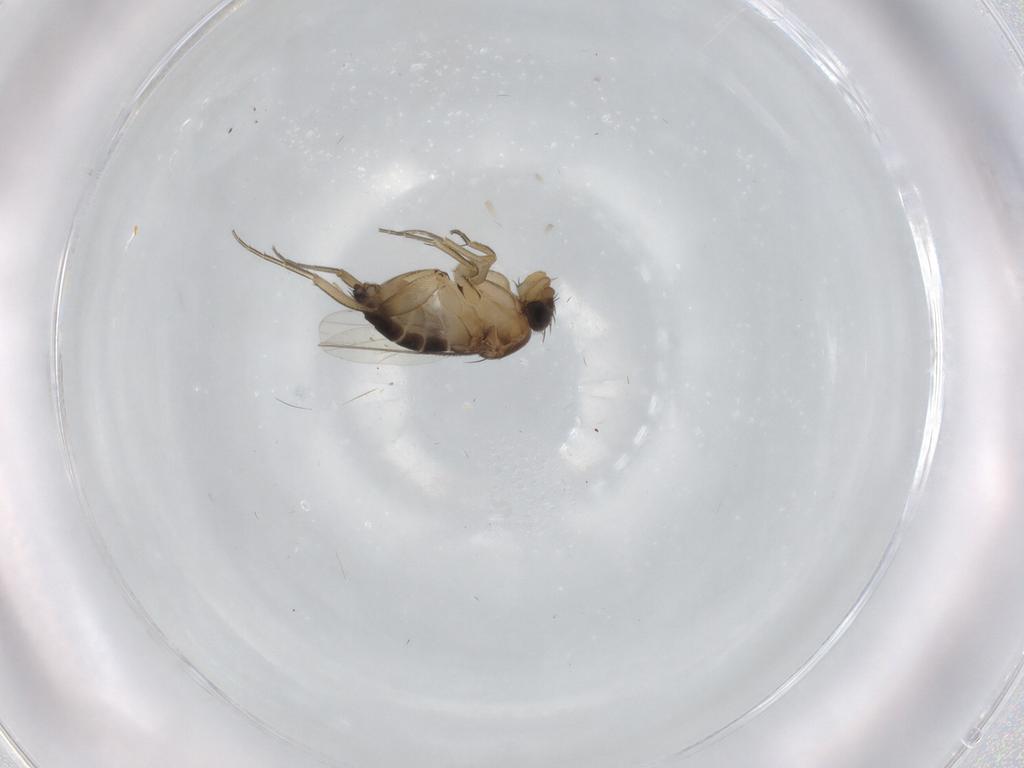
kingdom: Animalia
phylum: Arthropoda
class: Insecta
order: Diptera
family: Phoridae
